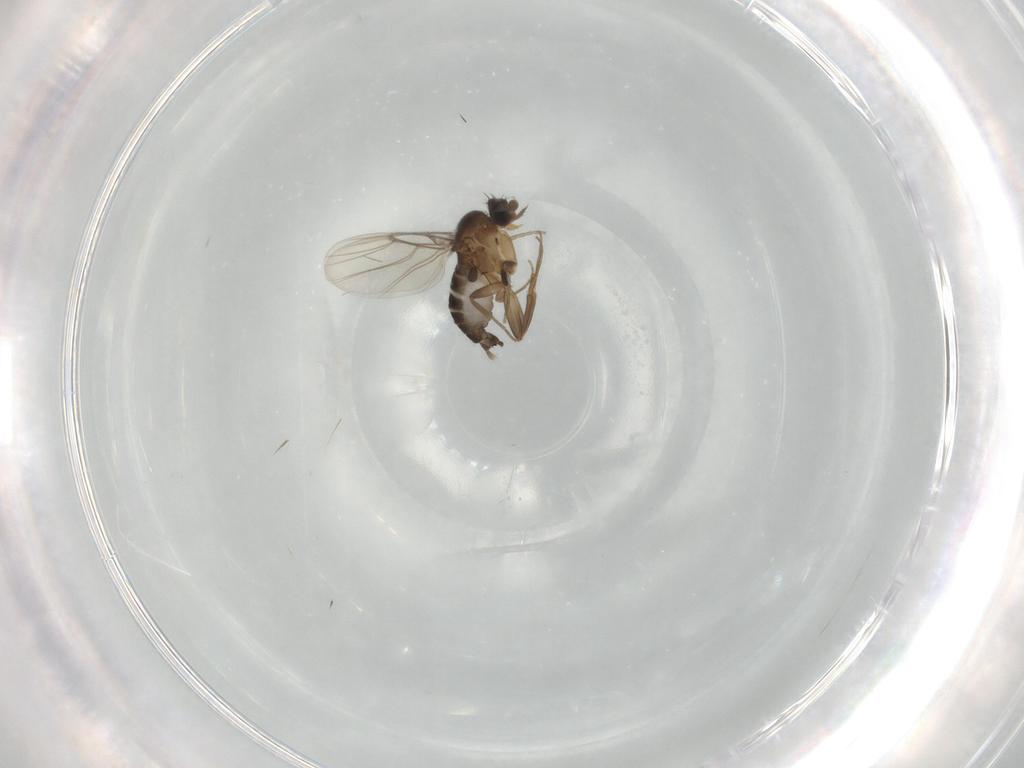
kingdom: Animalia
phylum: Arthropoda
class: Insecta
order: Diptera
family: Phoridae
